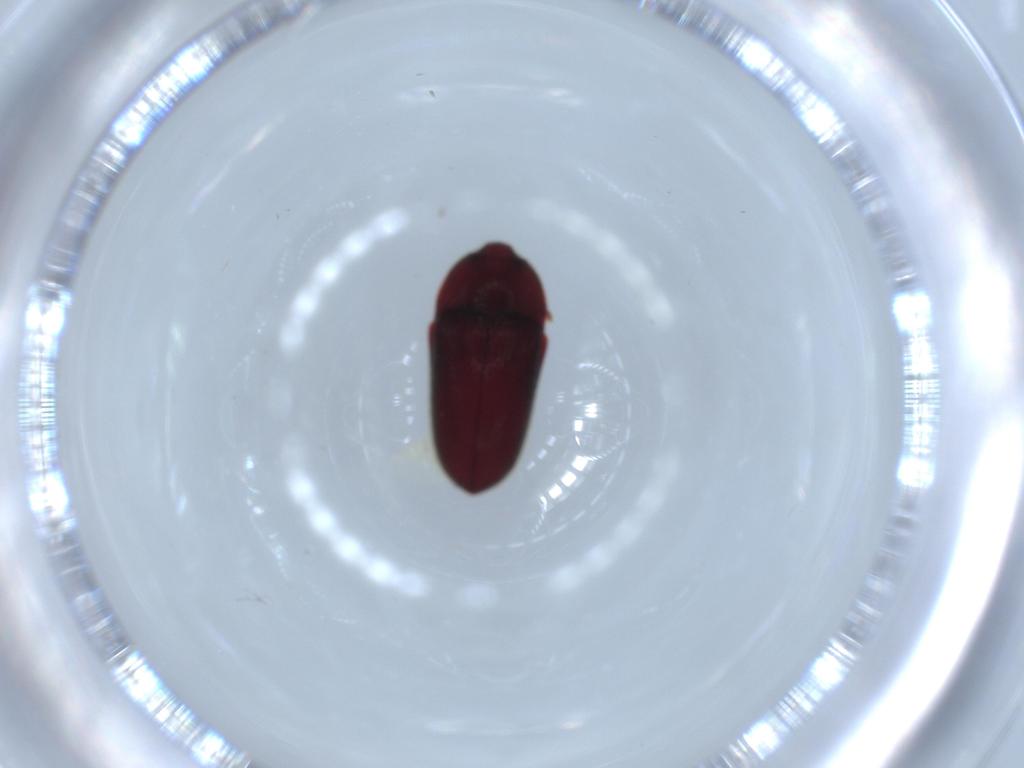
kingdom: Animalia
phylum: Arthropoda
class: Insecta
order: Coleoptera
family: Throscidae
